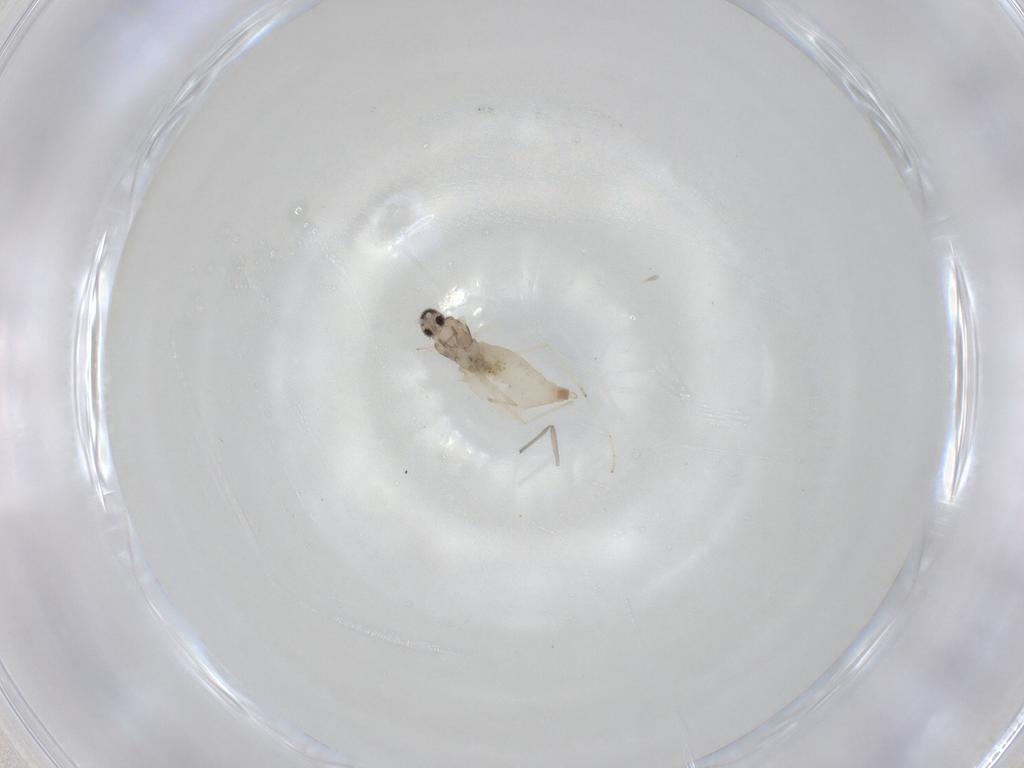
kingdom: Animalia
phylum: Arthropoda
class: Insecta
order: Diptera
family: Cecidomyiidae
